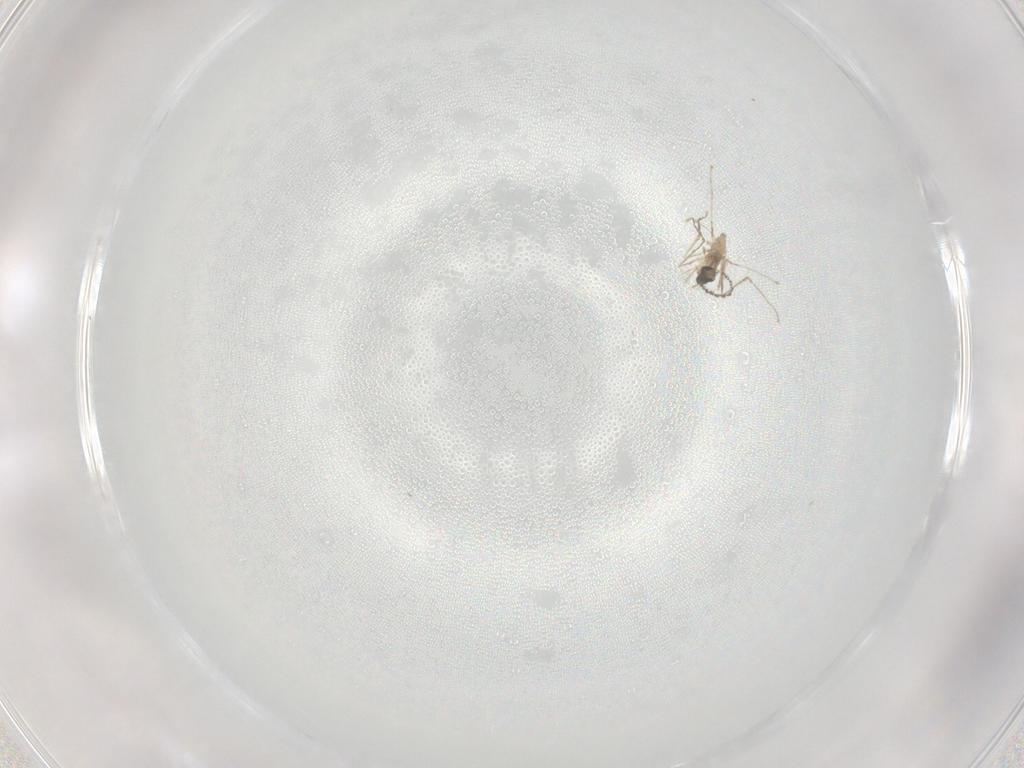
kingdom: Animalia
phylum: Arthropoda
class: Insecta
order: Diptera
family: Cecidomyiidae
